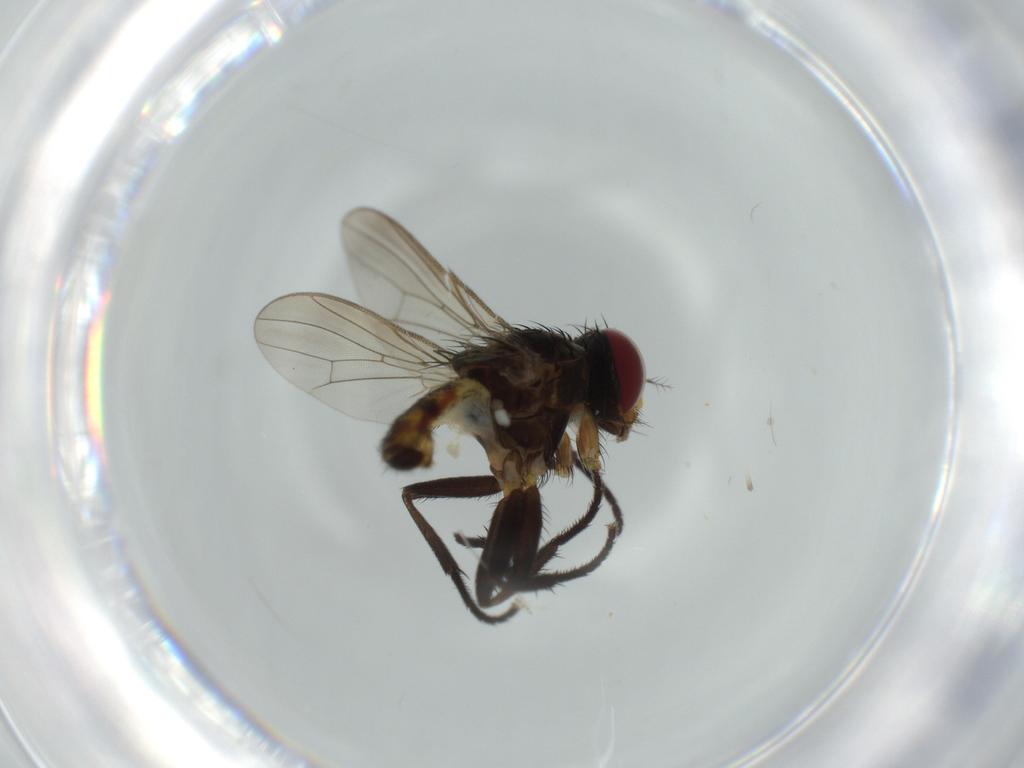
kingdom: Animalia
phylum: Arthropoda
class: Insecta
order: Diptera
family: Anthomyiidae
